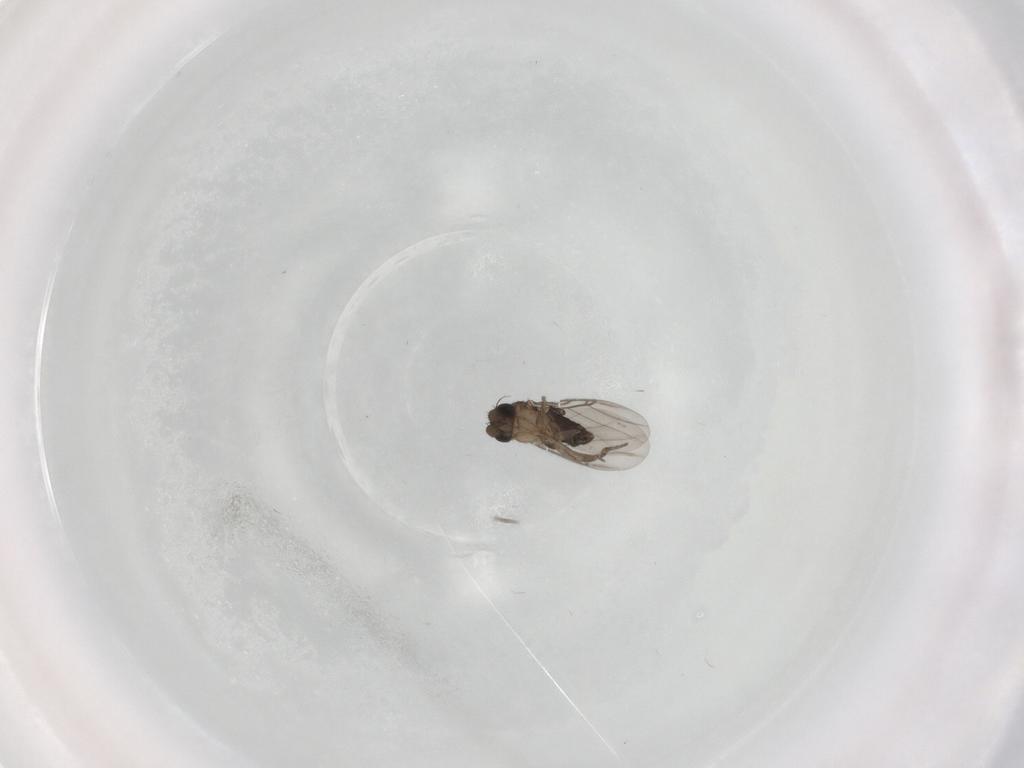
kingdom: Animalia
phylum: Arthropoda
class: Insecta
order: Diptera
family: Phoridae
